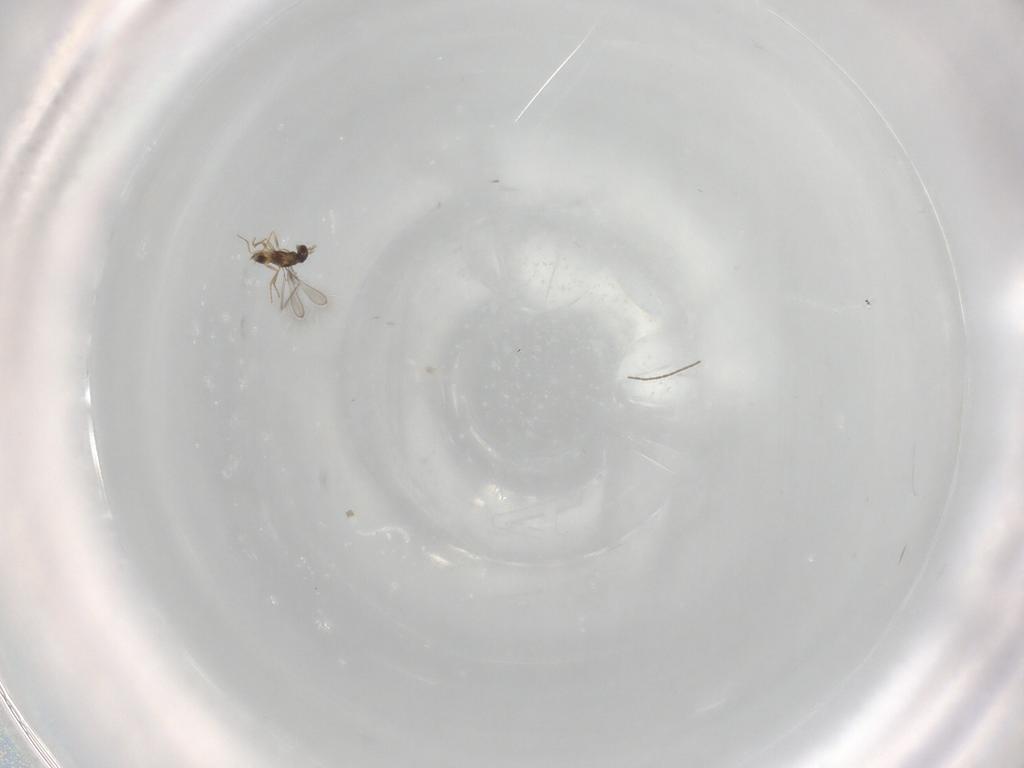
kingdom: Animalia
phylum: Arthropoda
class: Insecta
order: Hymenoptera
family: Mymaridae
